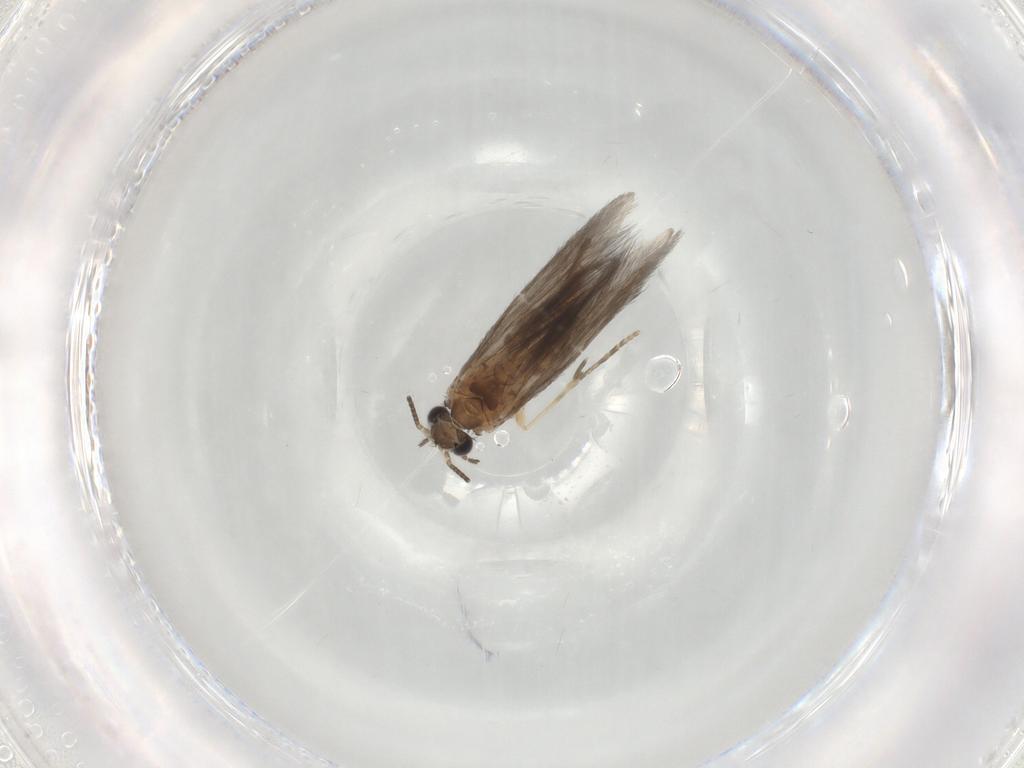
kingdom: Animalia
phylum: Arthropoda
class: Insecta
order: Trichoptera
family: Hydroptilidae
